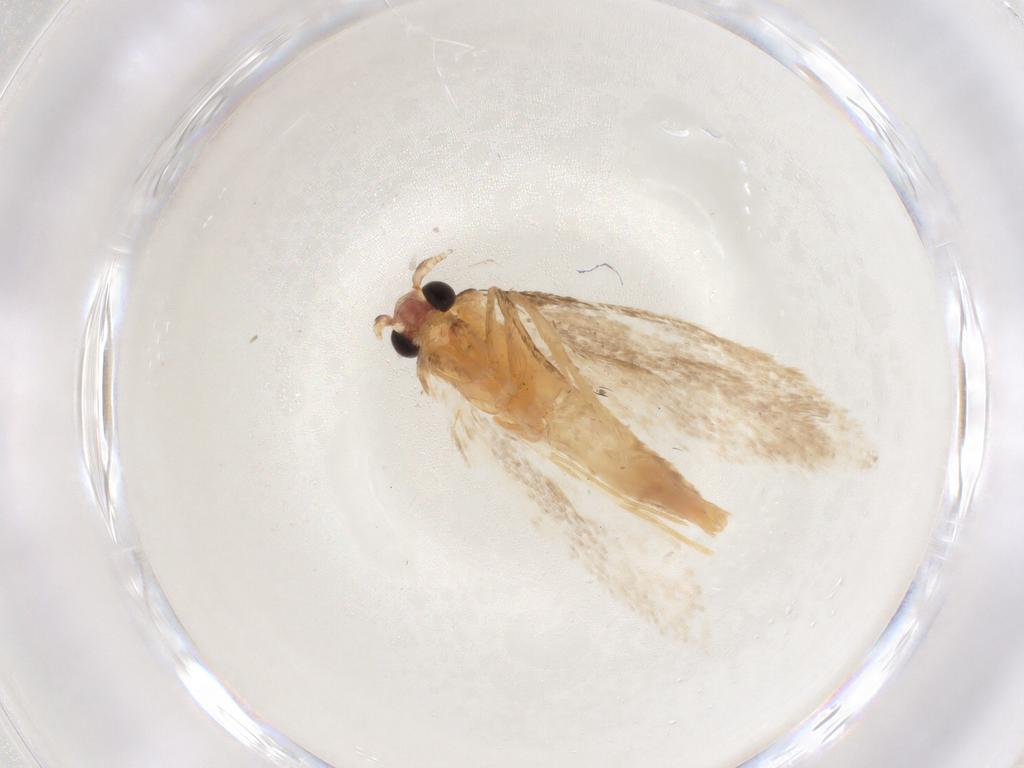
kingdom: Animalia
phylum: Arthropoda
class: Insecta
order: Lepidoptera
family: Tineidae
